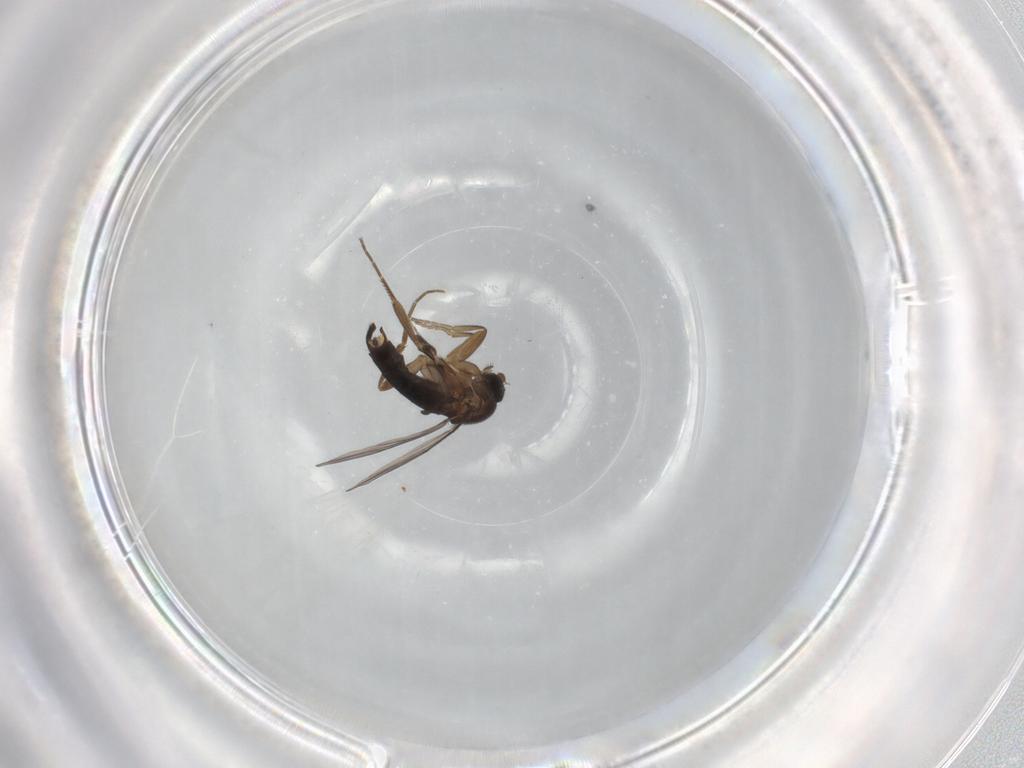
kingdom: Animalia
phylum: Arthropoda
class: Insecta
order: Diptera
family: Phoridae
